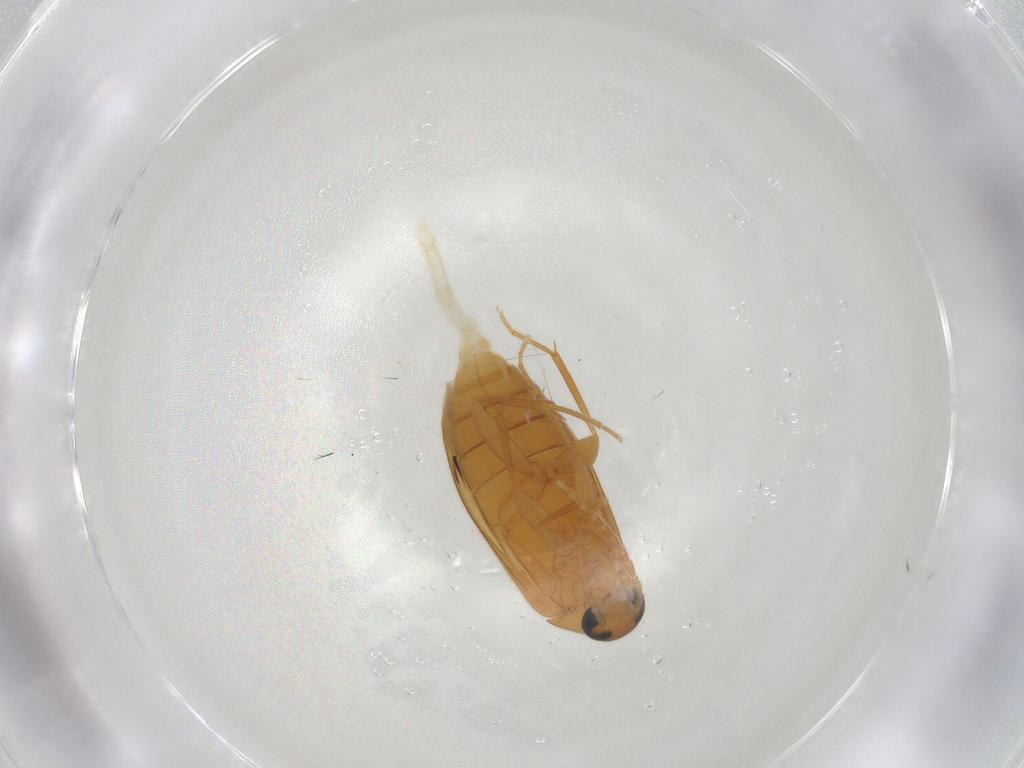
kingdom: Animalia
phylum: Arthropoda
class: Insecta
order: Coleoptera
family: Scraptiidae
